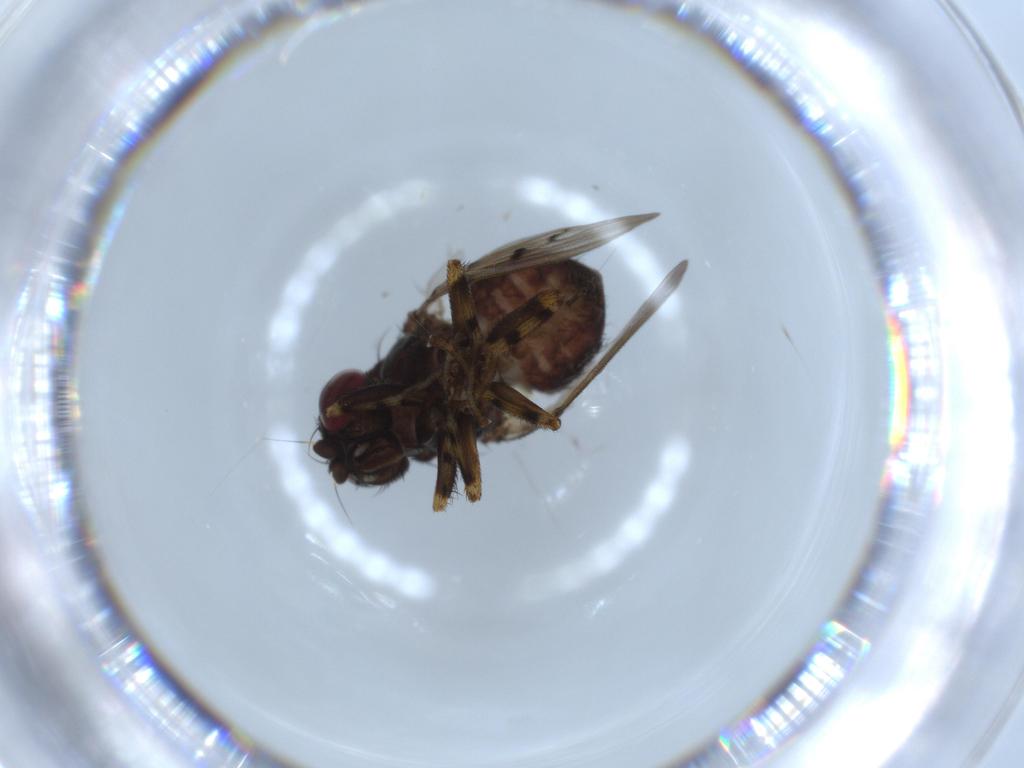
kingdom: Animalia
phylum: Arthropoda
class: Insecta
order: Diptera
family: Odiniidae
